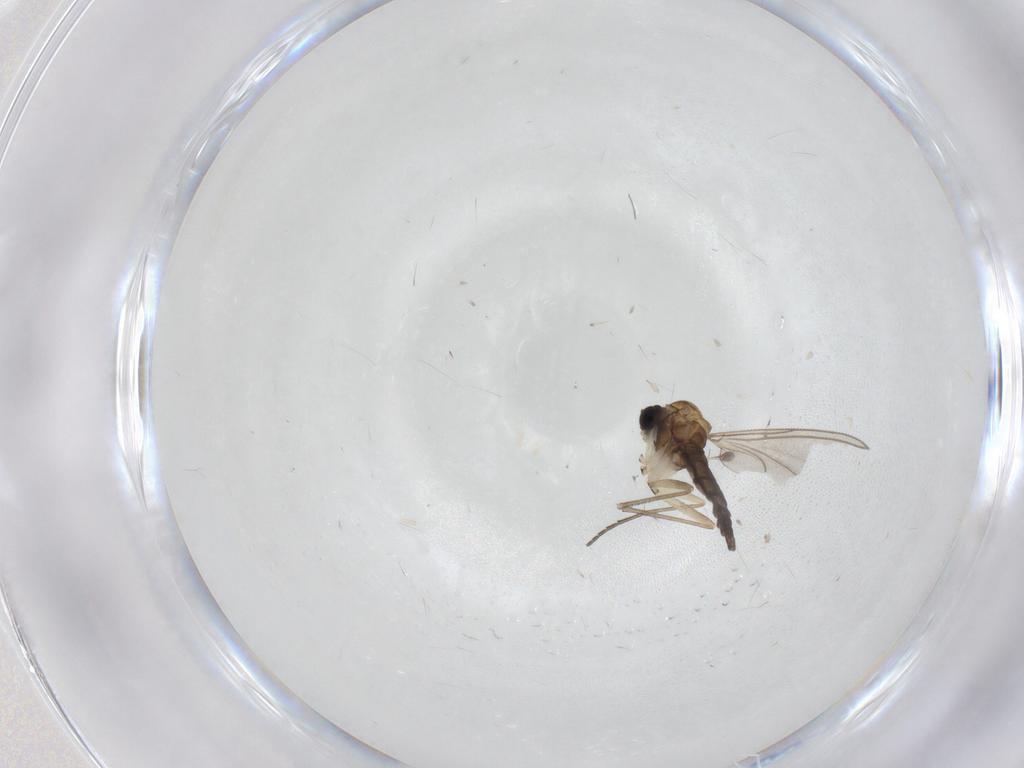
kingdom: Animalia
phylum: Arthropoda
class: Insecta
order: Diptera
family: Sciaridae
